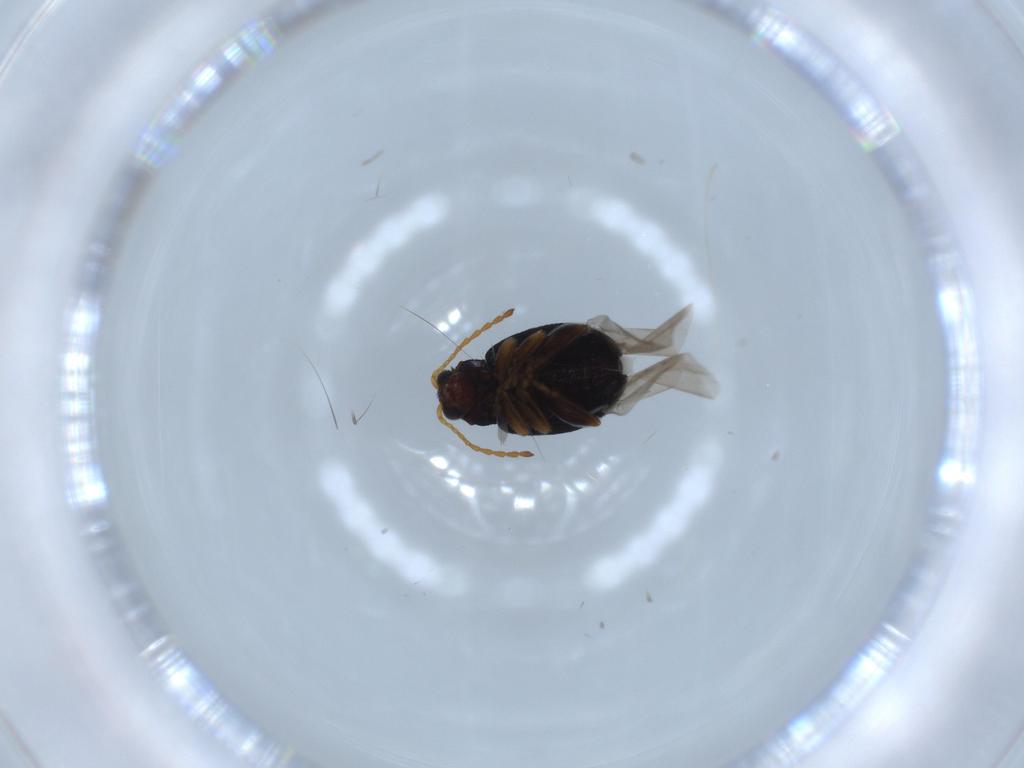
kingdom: Animalia
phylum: Arthropoda
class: Insecta
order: Coleoptera
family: Chrysomelidae
